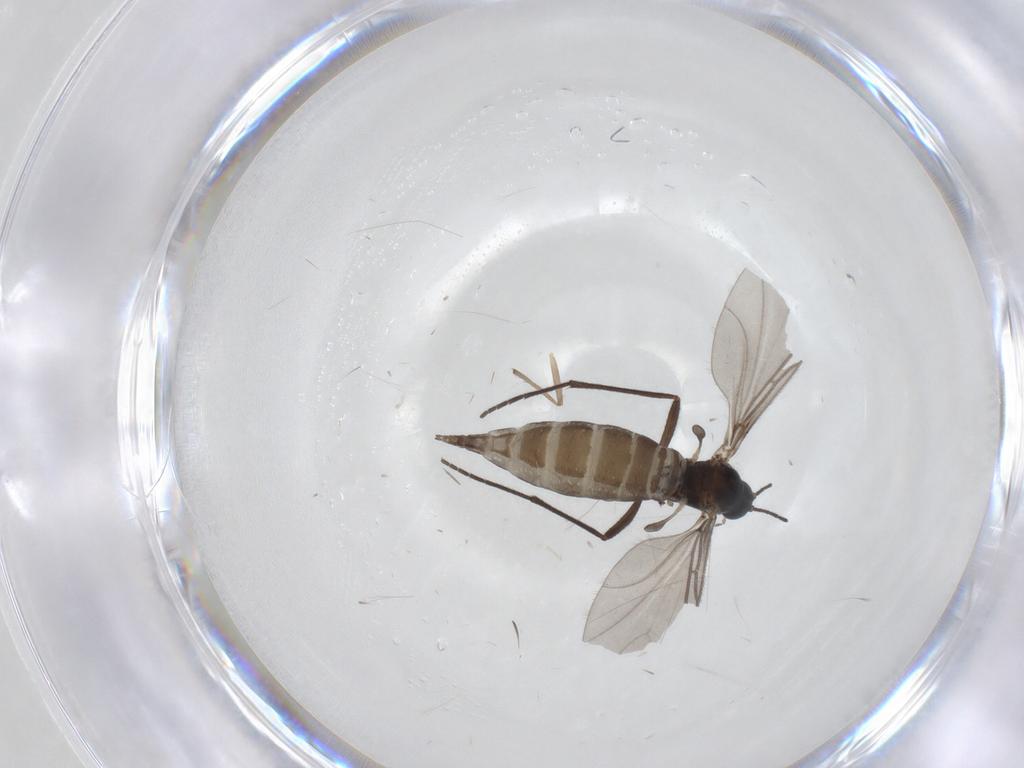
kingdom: Animalia
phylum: Arthropoda
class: Insecta
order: Diptera
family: Sciaridae
